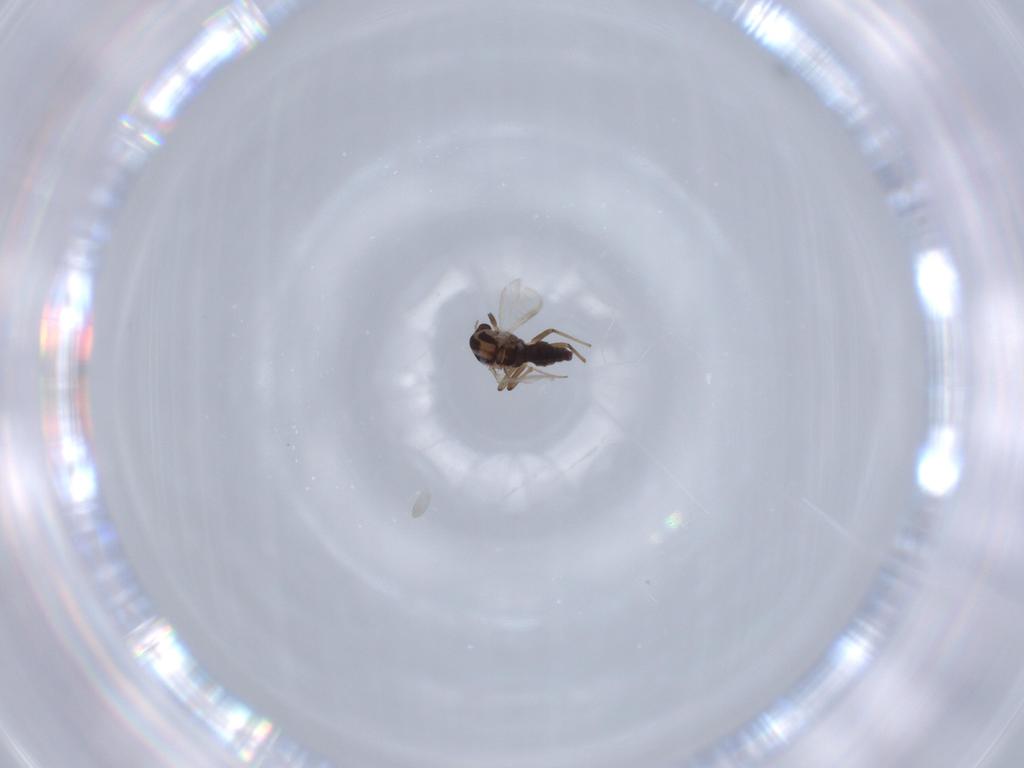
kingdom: Animalia
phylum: Arthropoda
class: Insecta
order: Diptera
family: Chironomidae
